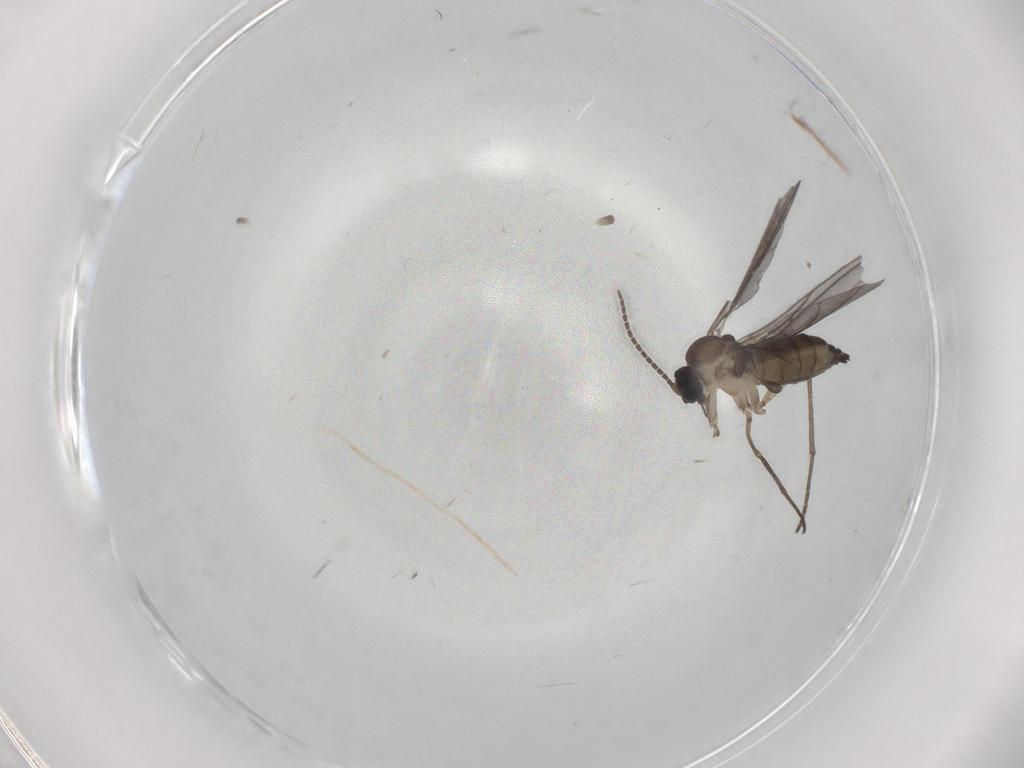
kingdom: Animalia
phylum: Arthropoda
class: Insecta
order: Diptera
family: Sciaridae
